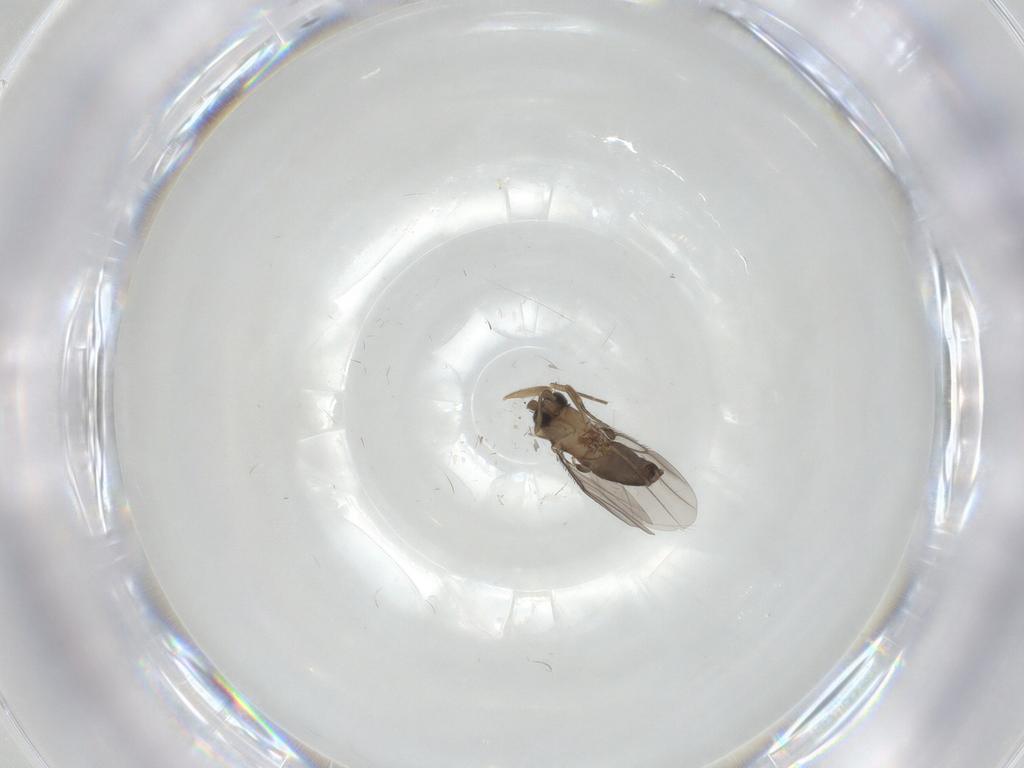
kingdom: Animalia
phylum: Arthropoda
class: Insecta
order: Diptera
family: Cecidomyiidae
